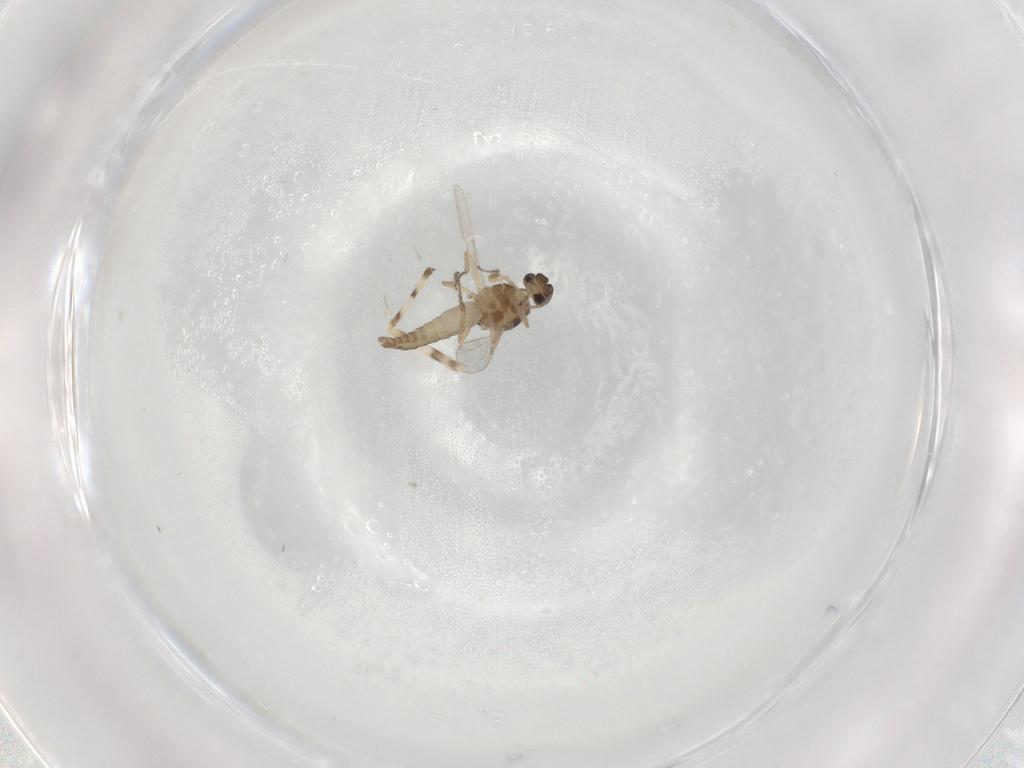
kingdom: Animalia
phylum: Arthropoda
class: Insecta
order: Diptera
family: Ceratopogonidae
